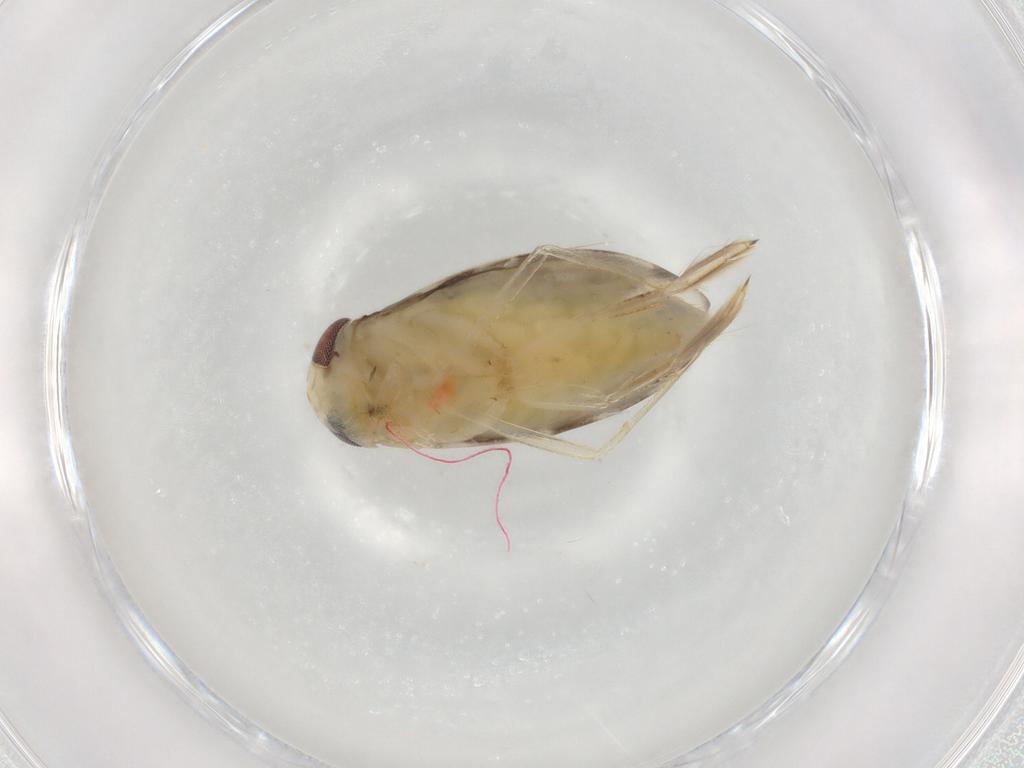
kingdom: Animalia
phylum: Arthropoda
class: Insecta
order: Hemiptera
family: Corixidae
